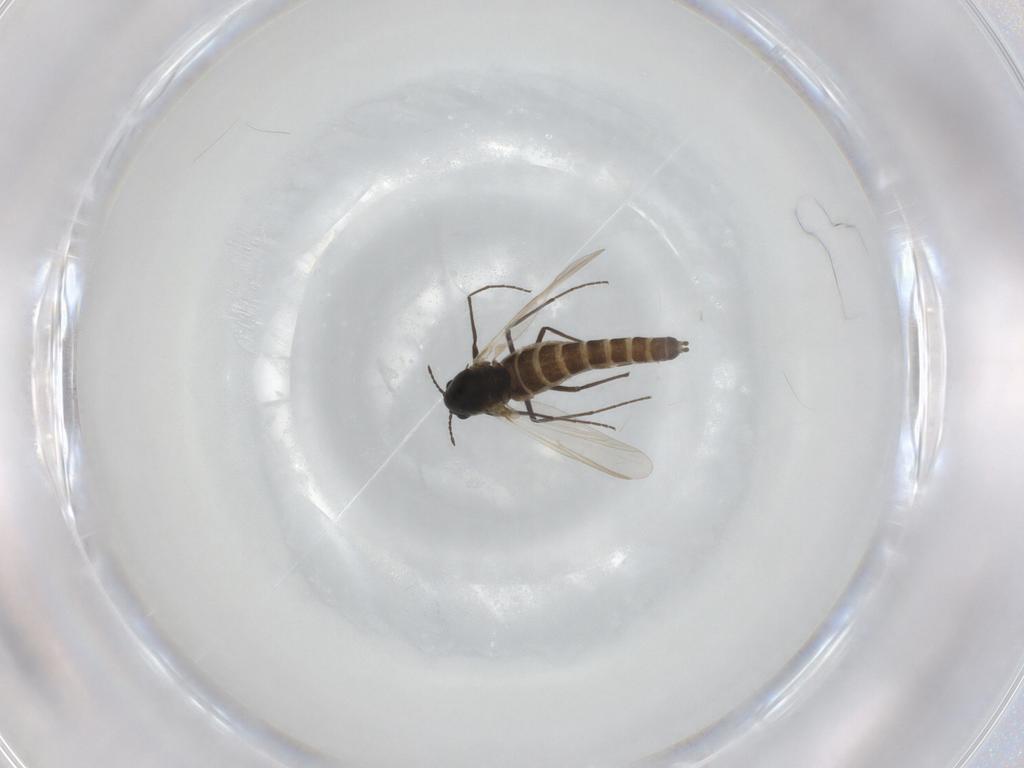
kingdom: Animalia
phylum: Arthropoda
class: Insecta
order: Diptera
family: Chironomidae
